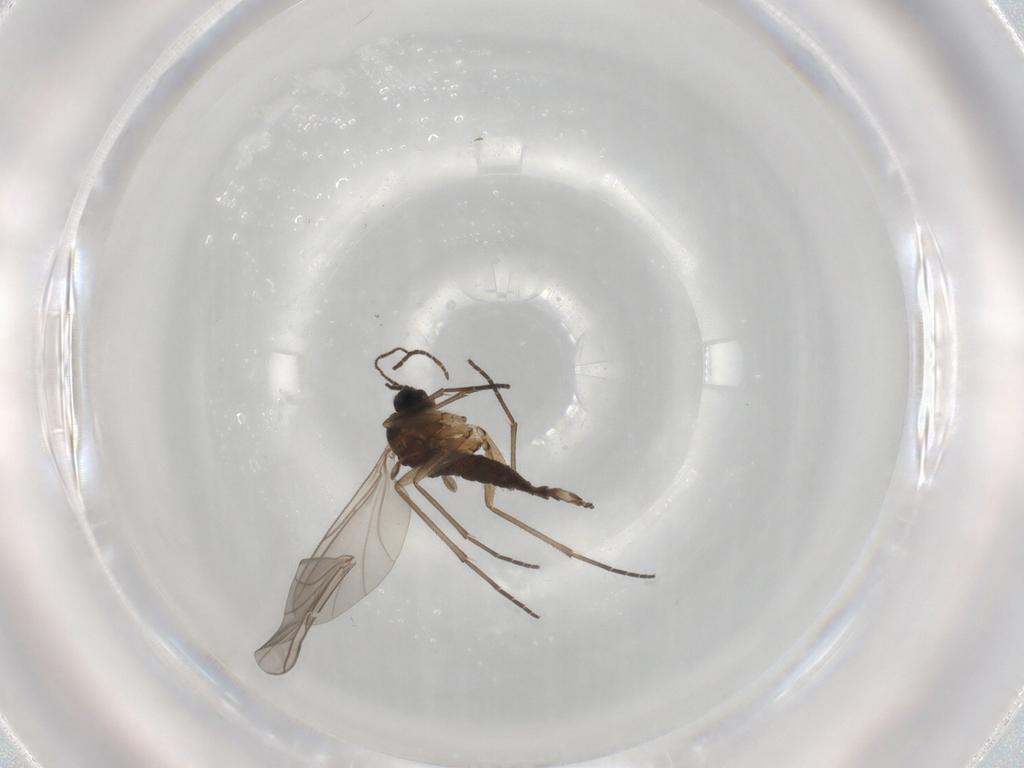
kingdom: Animalia
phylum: Arthropoda
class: Insecta
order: Diptera
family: Sciaridae
